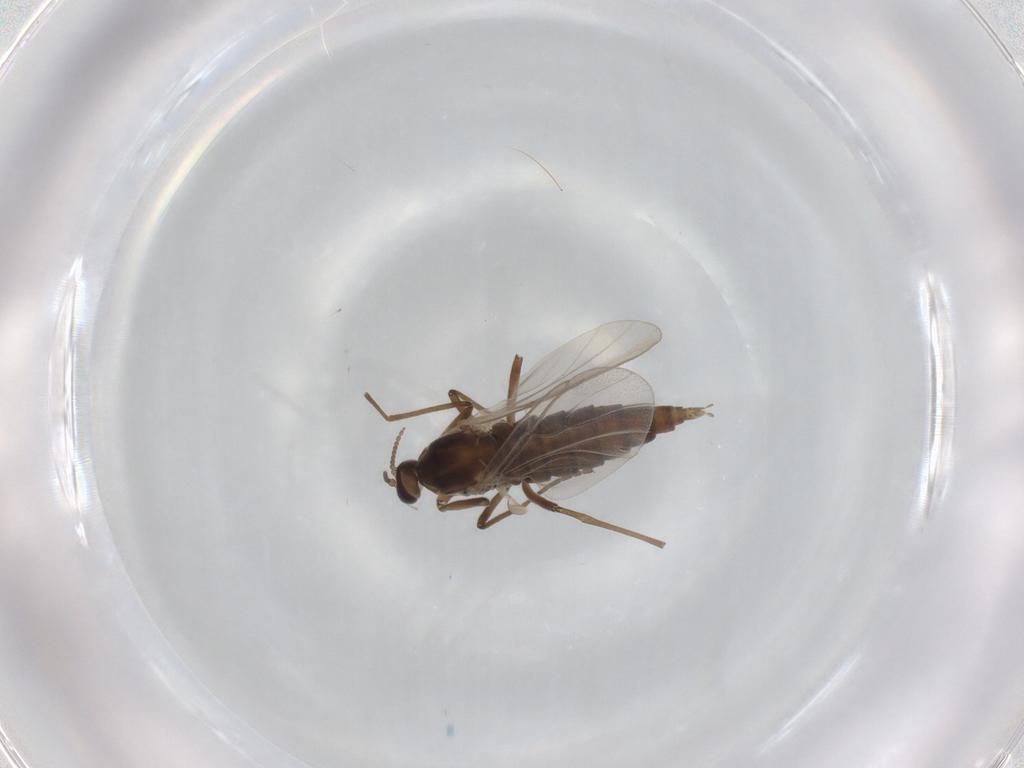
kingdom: Animalia
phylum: Arthropoda
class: Insecta
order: Diptera
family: Cecidomyiidae
